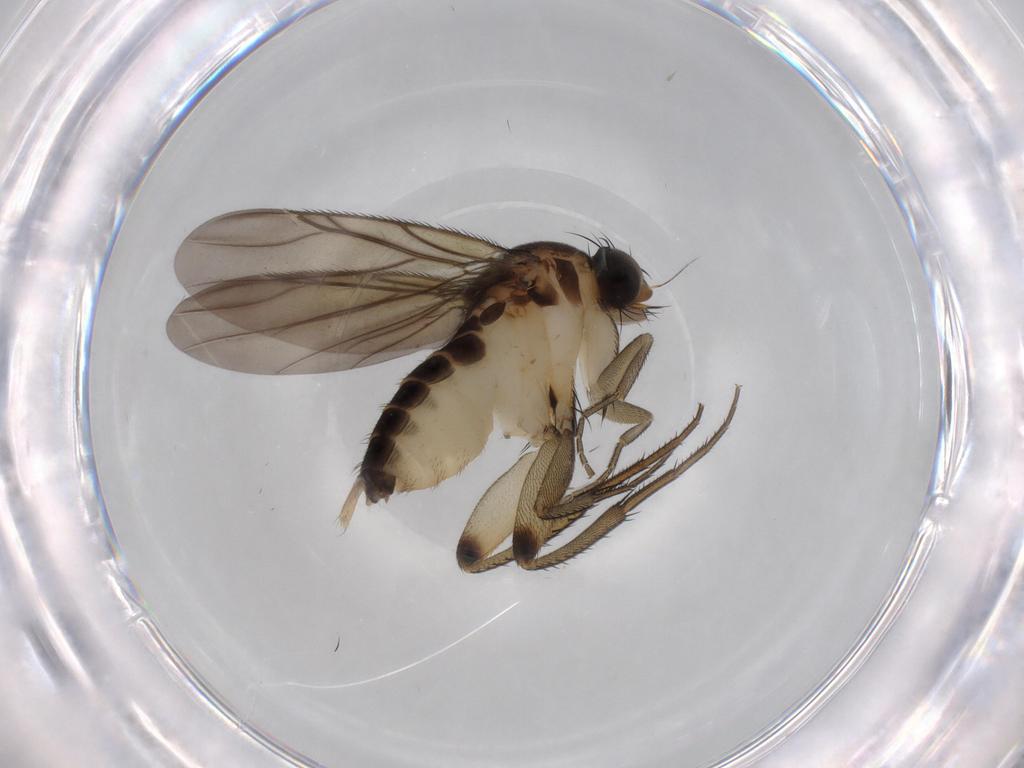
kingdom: Animalia
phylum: Arthropoda
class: Insecta
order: Diptera
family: Phoridae
